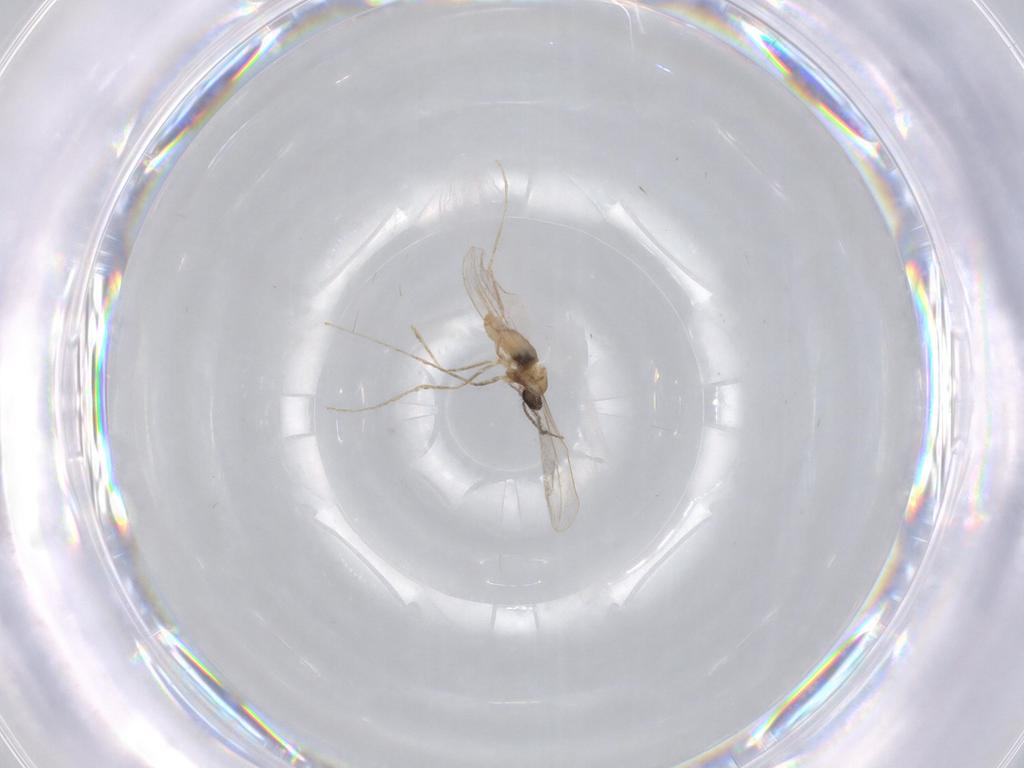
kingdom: Animalia
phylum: Arthropoda
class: Insecta
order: Diptera
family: Cecidomyiidae
